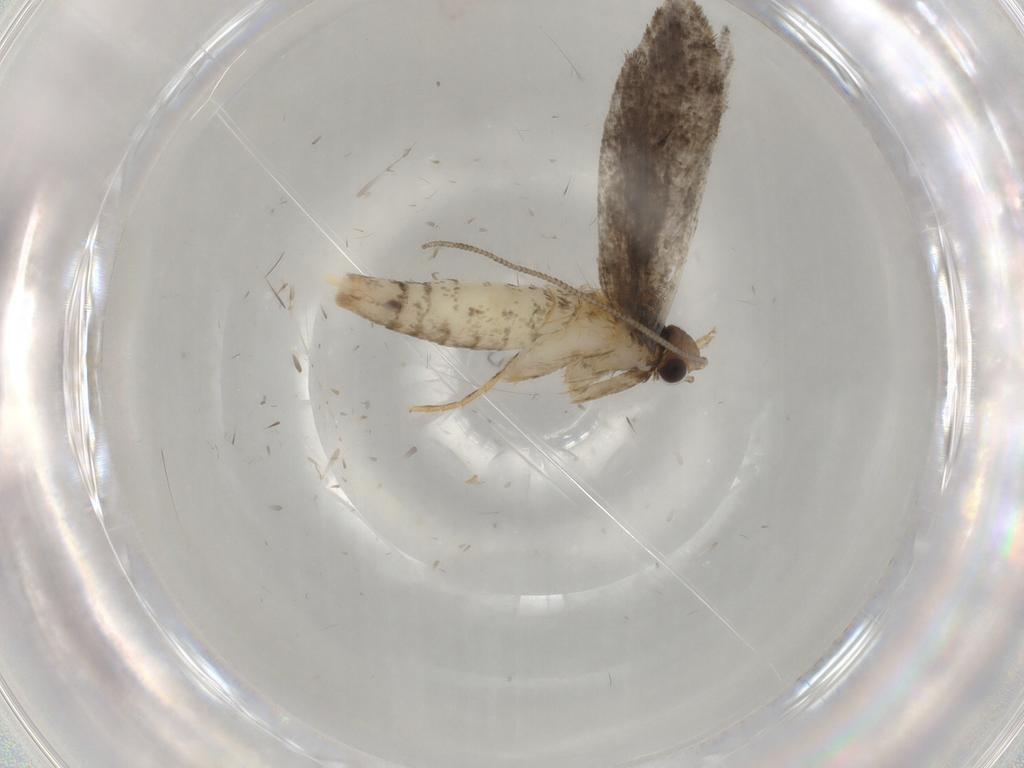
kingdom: Animalia
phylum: Arthropoda
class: Insecta
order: Lepidoptera
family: Tineidae
